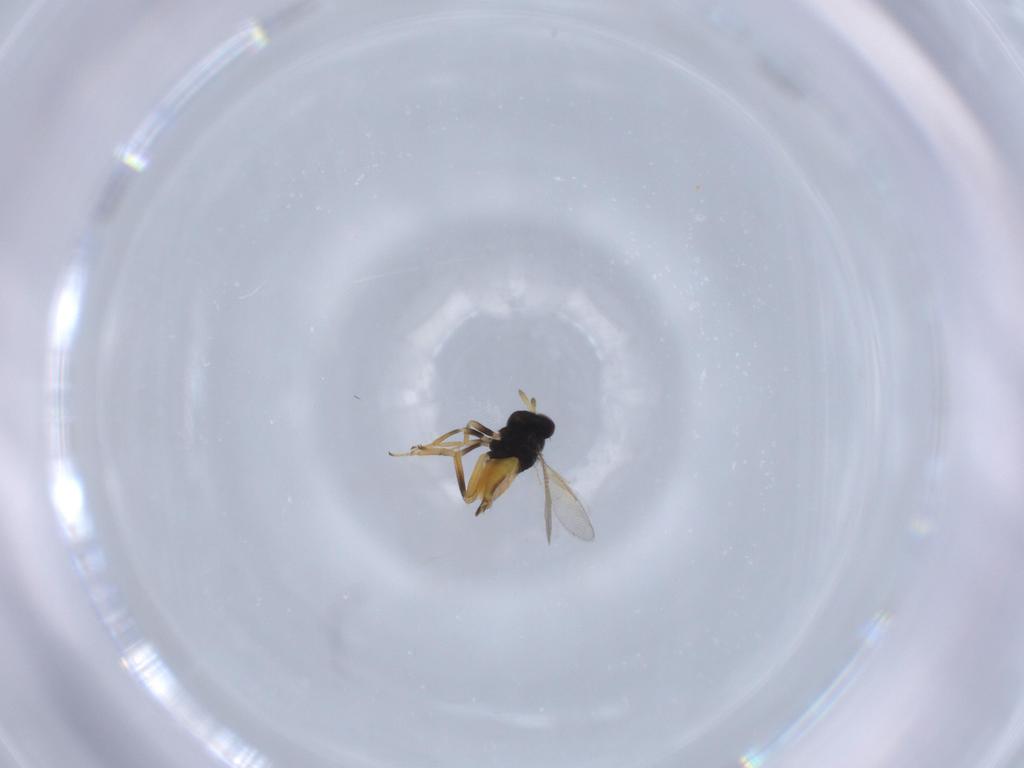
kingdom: Animalia
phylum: Arthropoda
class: Insecta
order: Hymenoptera
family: Aphelinidae
